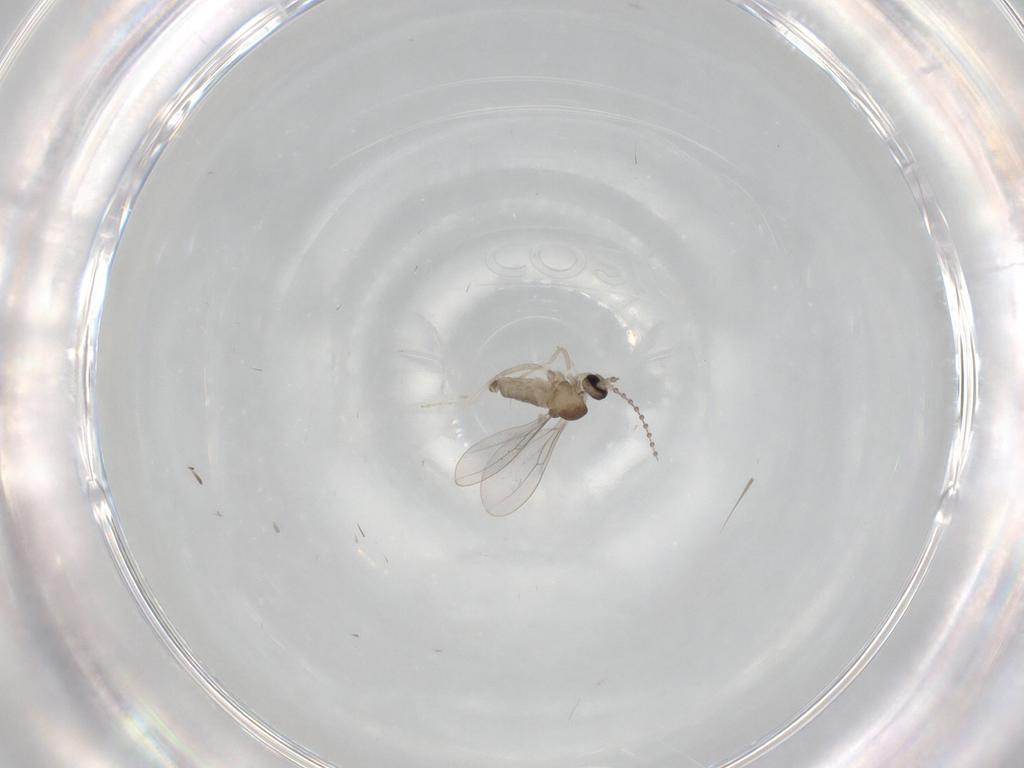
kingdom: Animalia
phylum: Arthropoda
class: Insecta
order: Diptera
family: Cecidomyiidae
